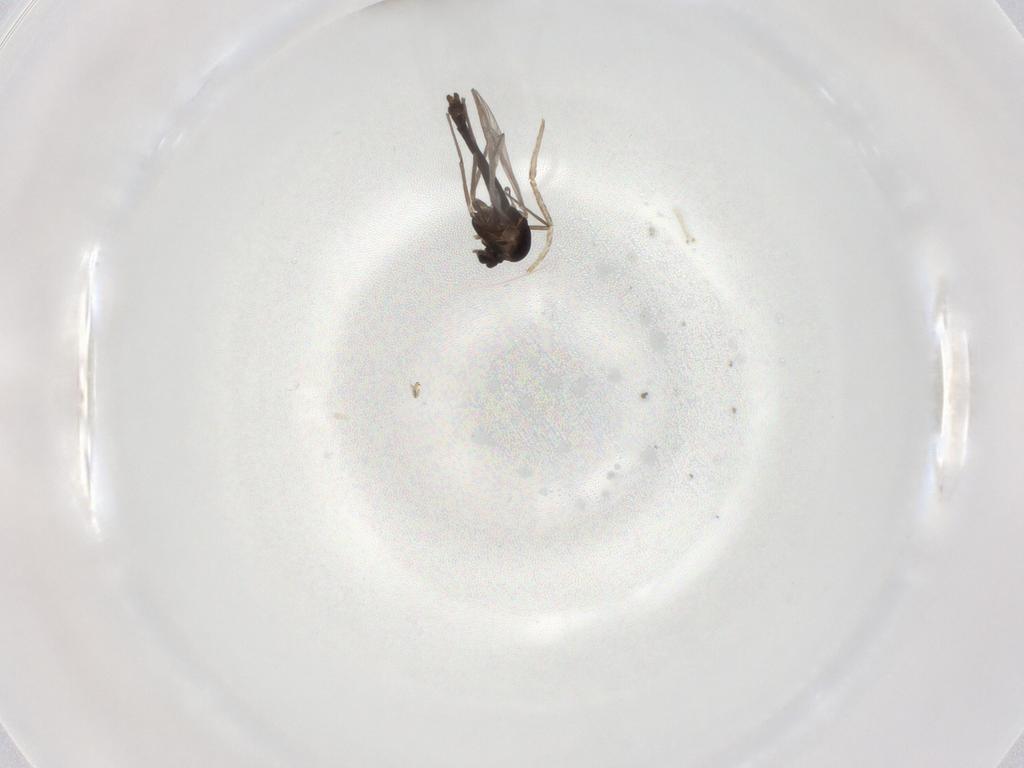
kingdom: Animalia
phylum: Arthropoda
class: Insecta
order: Diptera
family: Chironomidae
